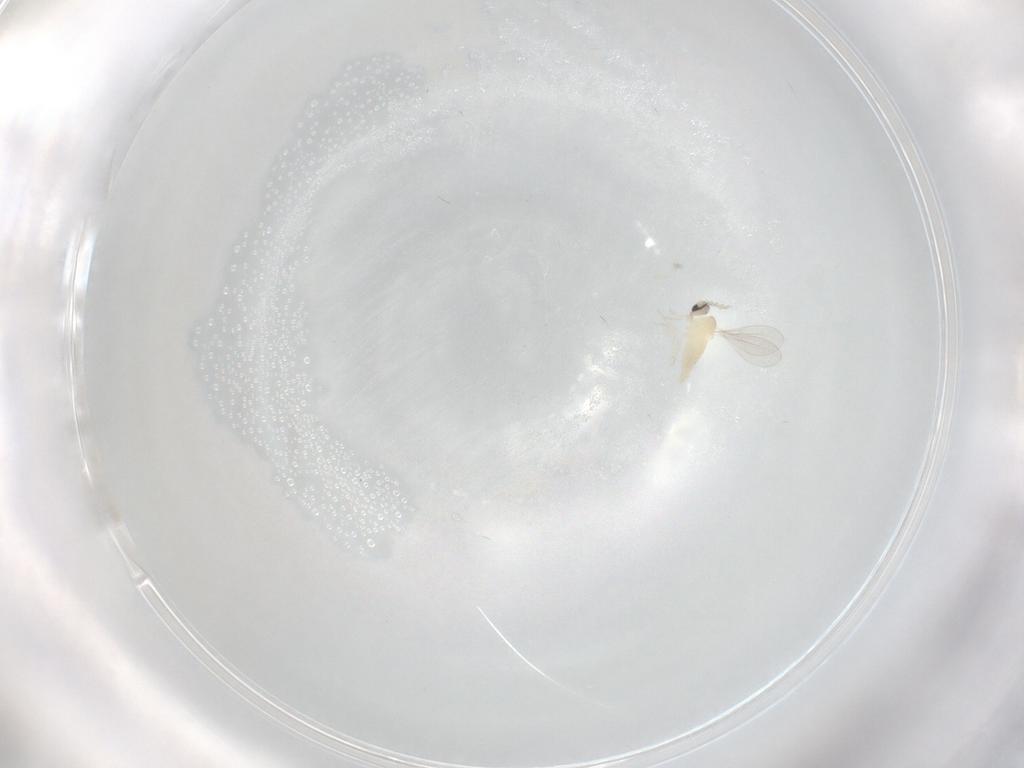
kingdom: Animalia
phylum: Arthropoda
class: Insecta
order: Diptera
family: Cecidomyiidae
